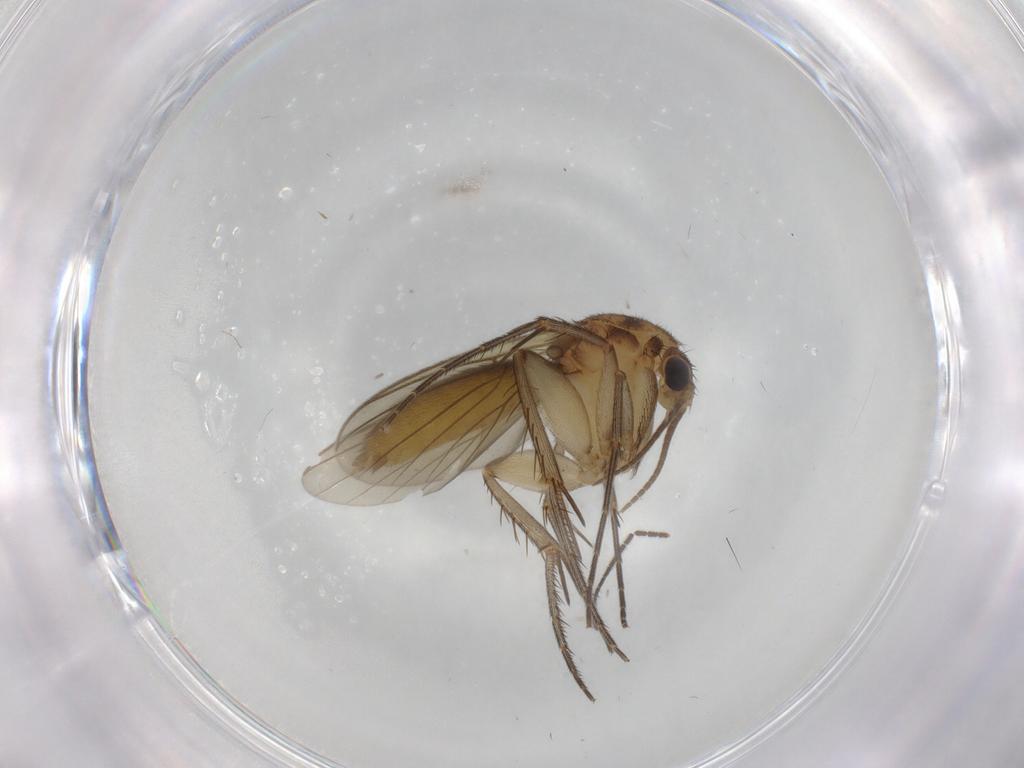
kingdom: Animalia
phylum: Arthropoda
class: Insecta
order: Diptera
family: Sciaridae
